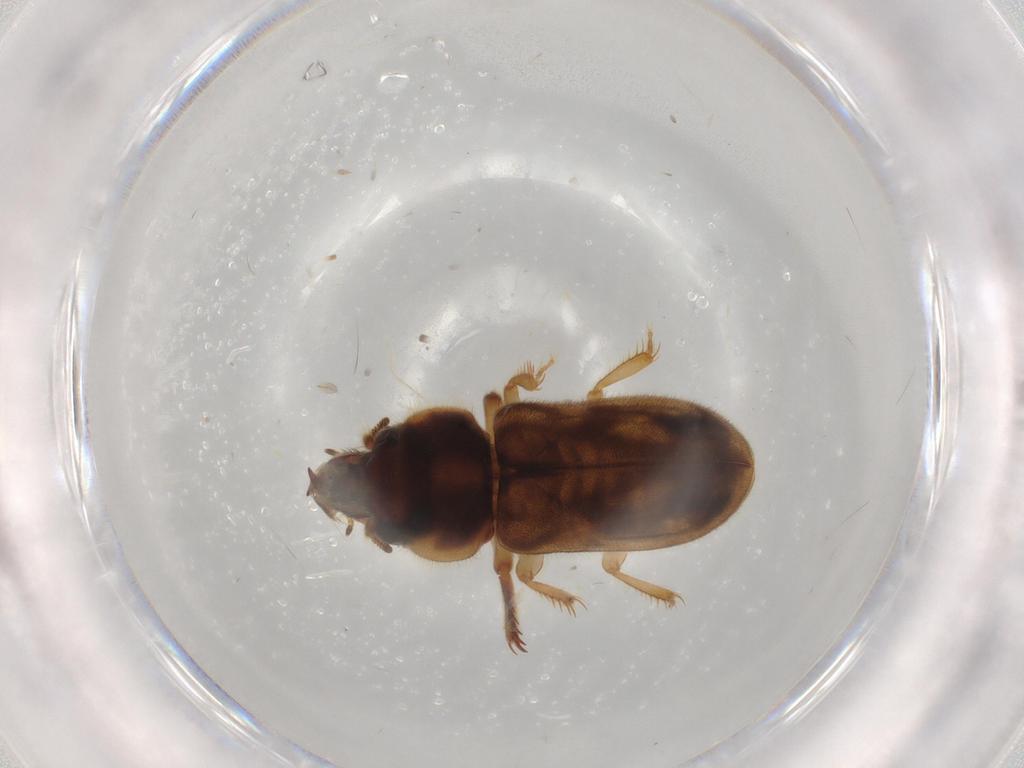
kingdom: Animalia
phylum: Arthropoda
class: Insecta
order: Coleoptera
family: Heteroceridae
